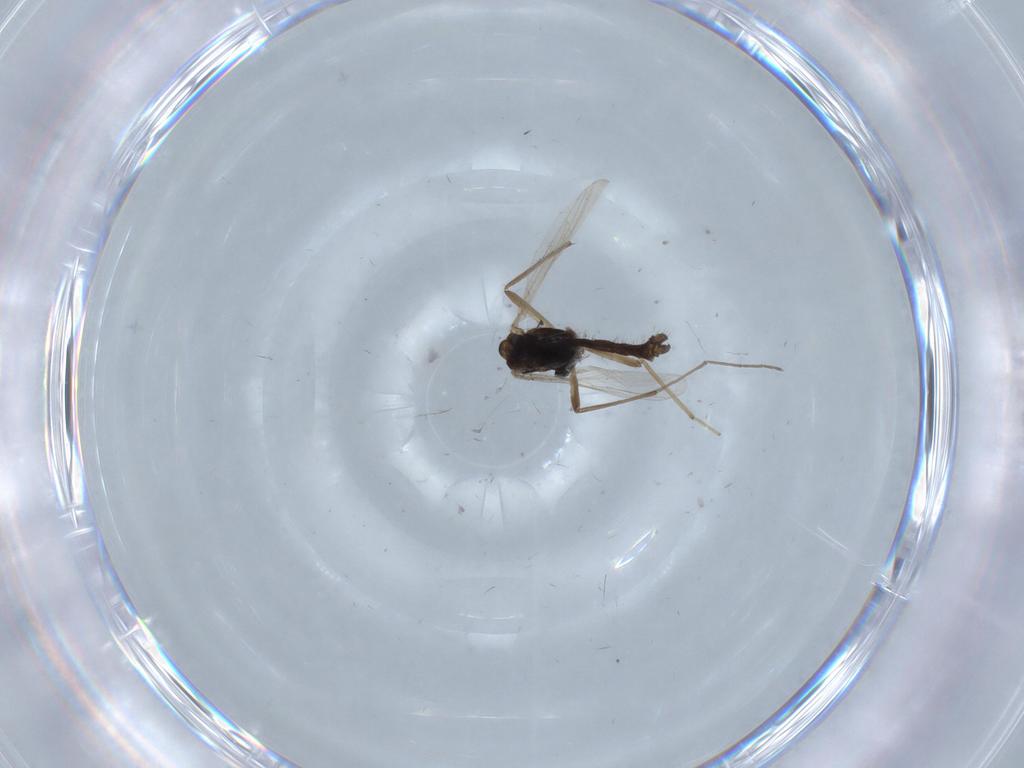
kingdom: Animalia
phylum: Arthropoda
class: Insecta
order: Diptera
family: Chironomidae
